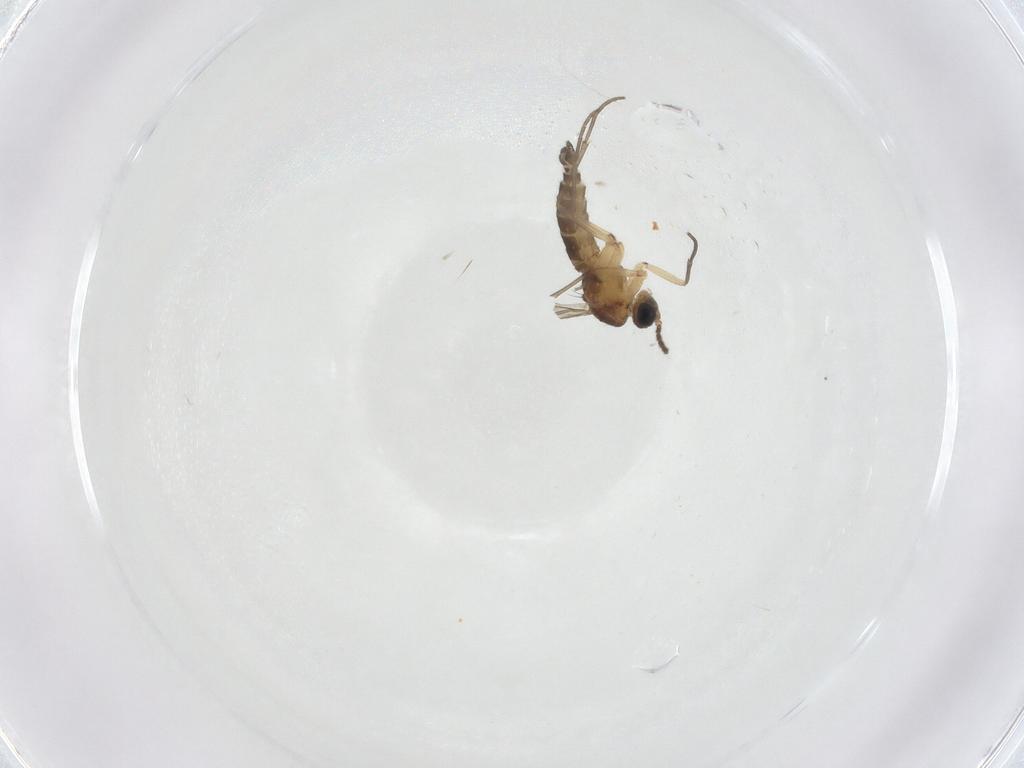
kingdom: Animalia
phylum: Arthropoda
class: Insecta
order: Diptera
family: Sciaridae
